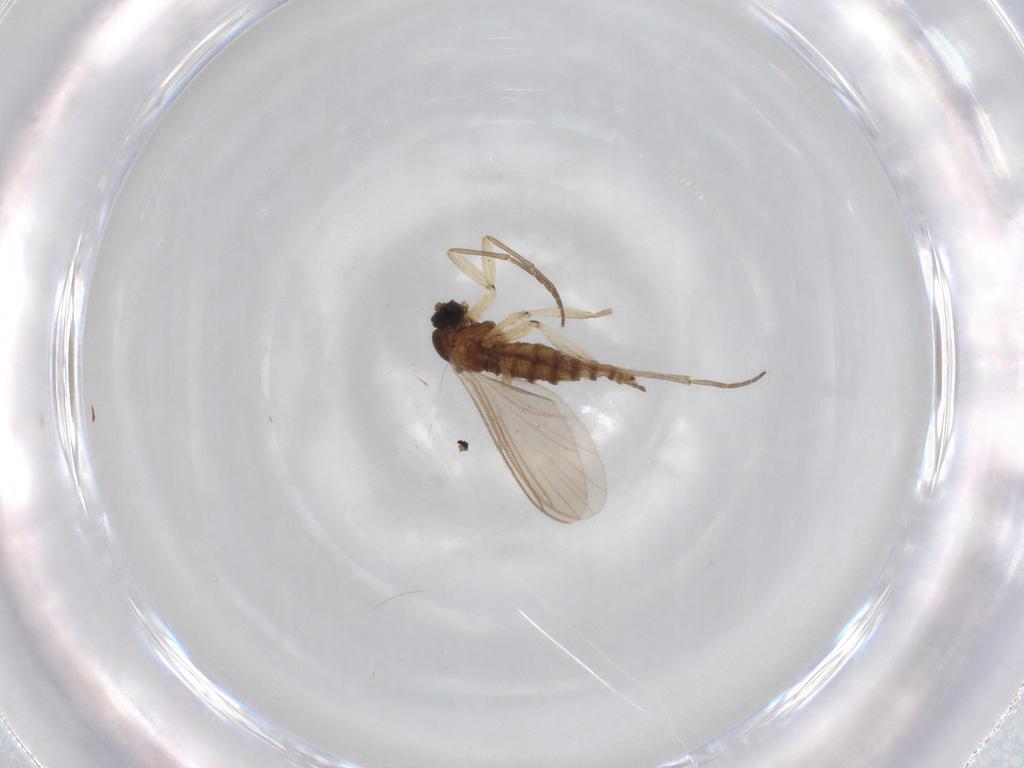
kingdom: Animalia
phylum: Arthropoda
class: Insecta
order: Diptera
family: Sciaridae
